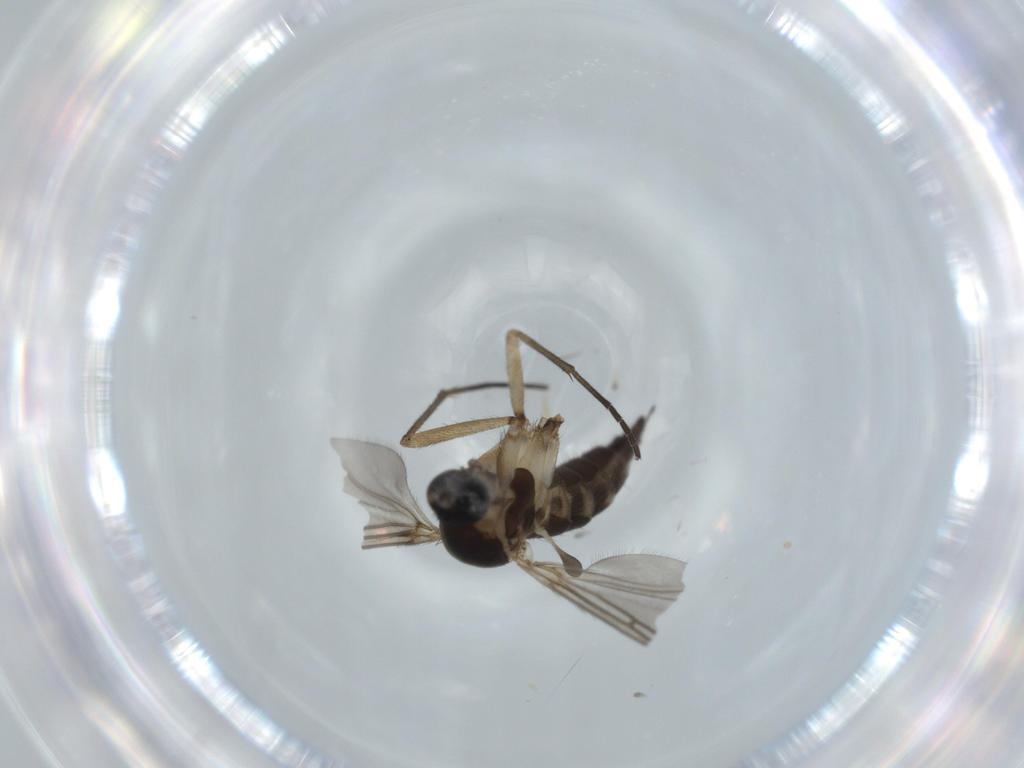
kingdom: Animalia
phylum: Arthropoda
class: Insecta
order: Diptera
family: Sciaridae
